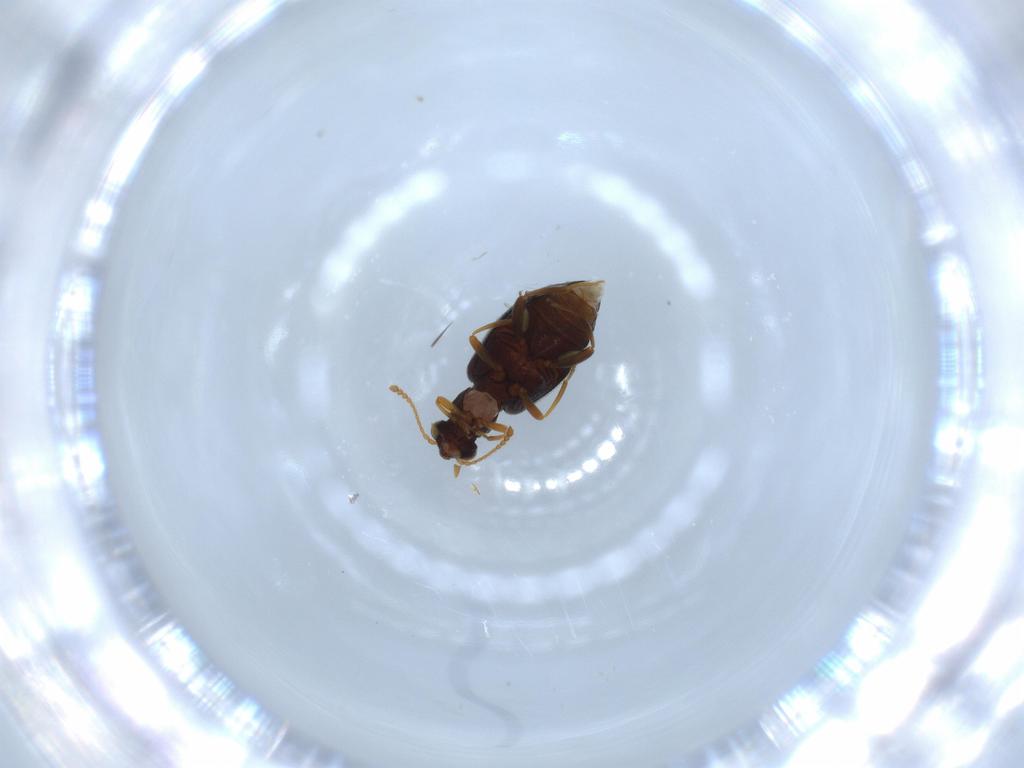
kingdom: Animalia
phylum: Arthropoda
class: Insecta
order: Coleoptera
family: Aderidae
